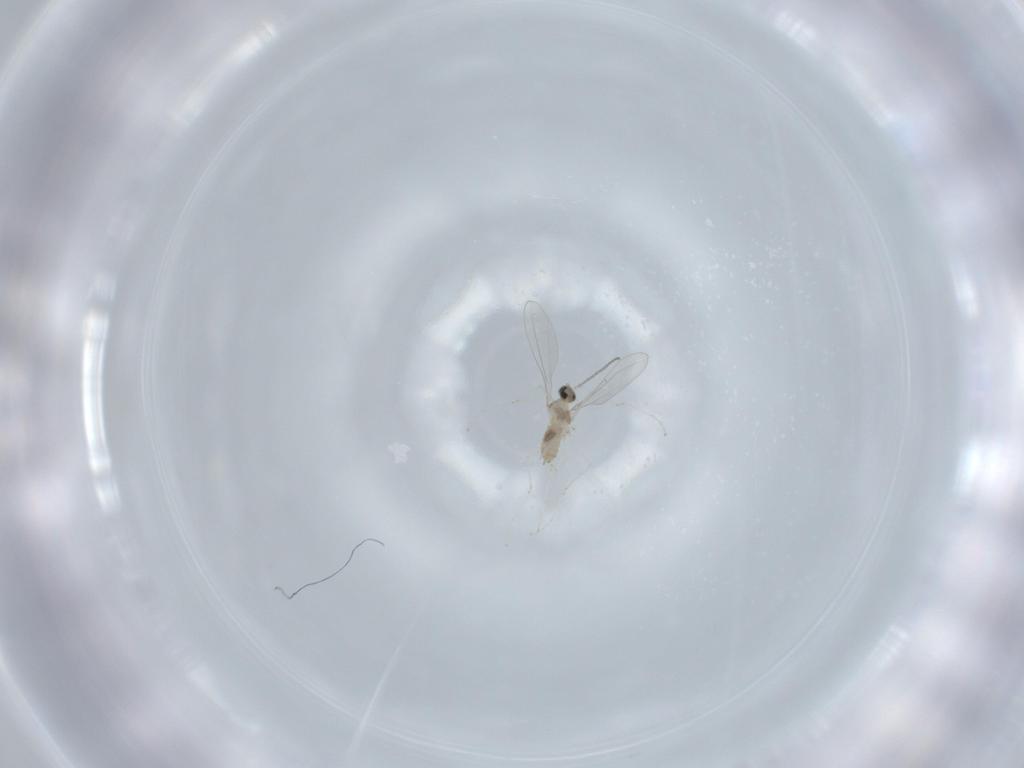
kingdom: Animalia
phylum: Arthropoda
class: Insecta
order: Diptera
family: Cecidomyiidae
